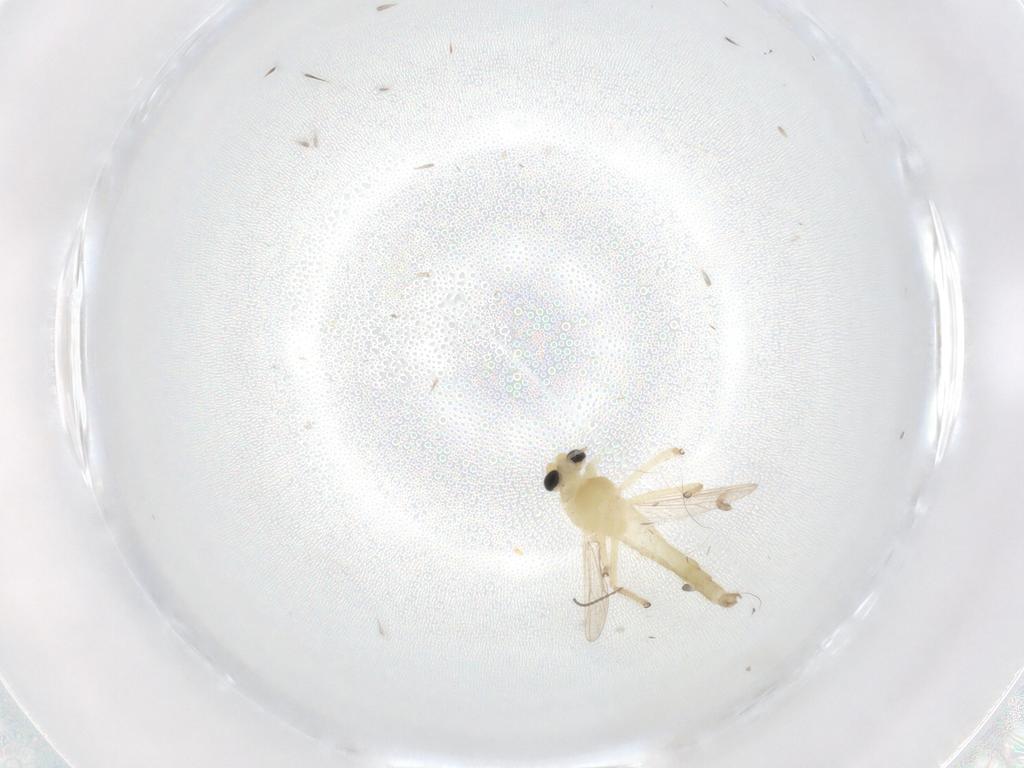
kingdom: Animalia
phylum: Arthropoda
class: Insecta
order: Diptera
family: Chironomidae
